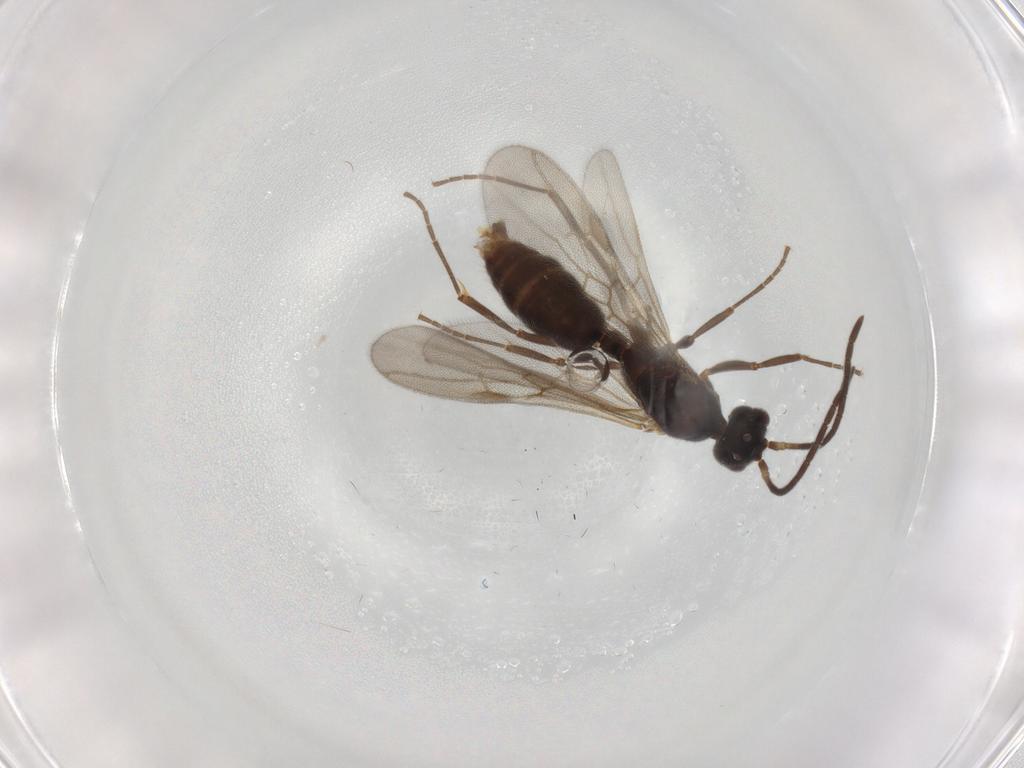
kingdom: Animalia
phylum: Arthropoda
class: Insecta
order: Hymenoptera
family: Formicidae
